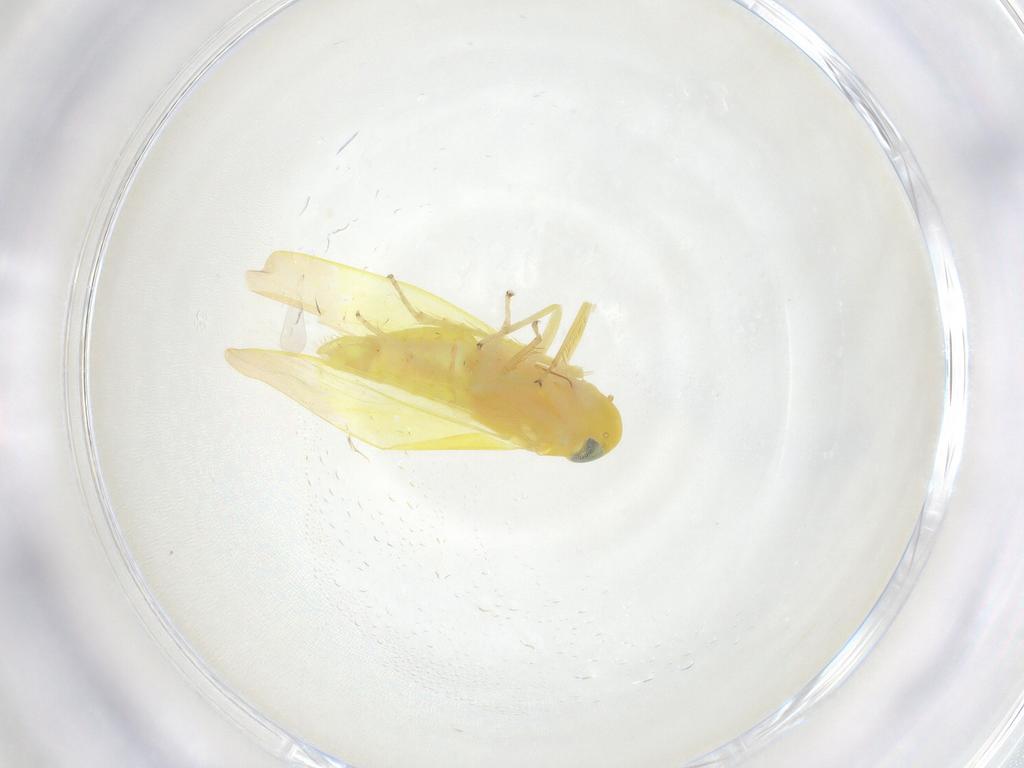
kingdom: Animalia
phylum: Arthropoda
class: Insecta
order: Hemiptera
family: Cicadellidae
